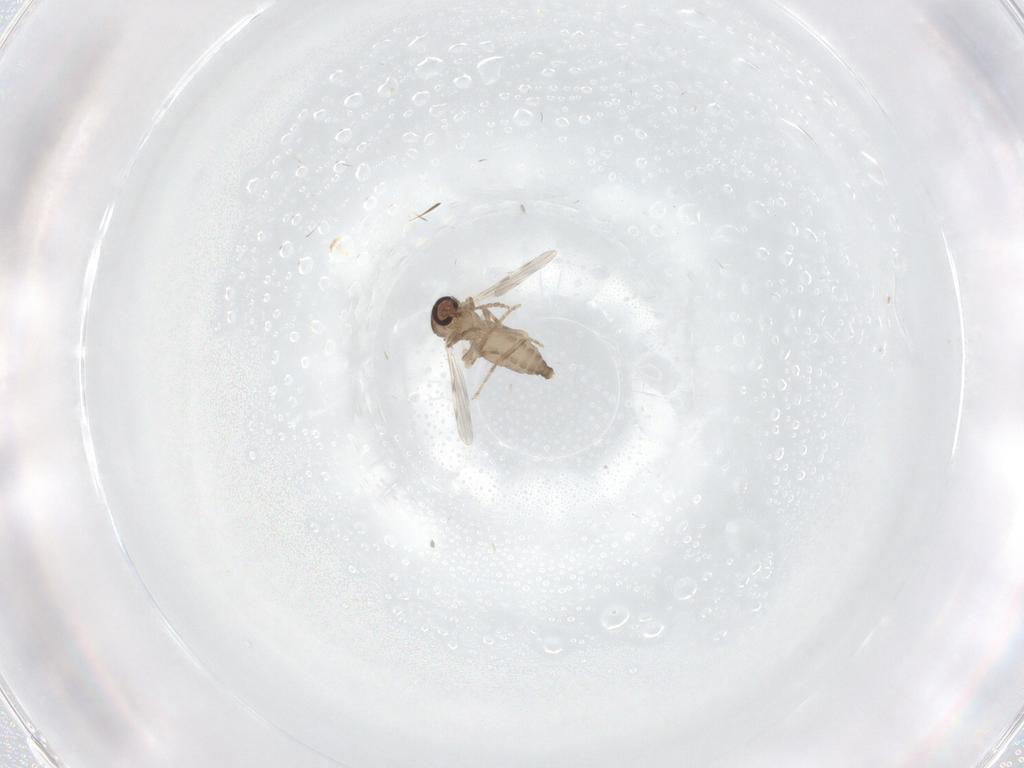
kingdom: Animalia
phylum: Arthropoda
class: Insecta
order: Diptera
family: Ceratopogonidae
